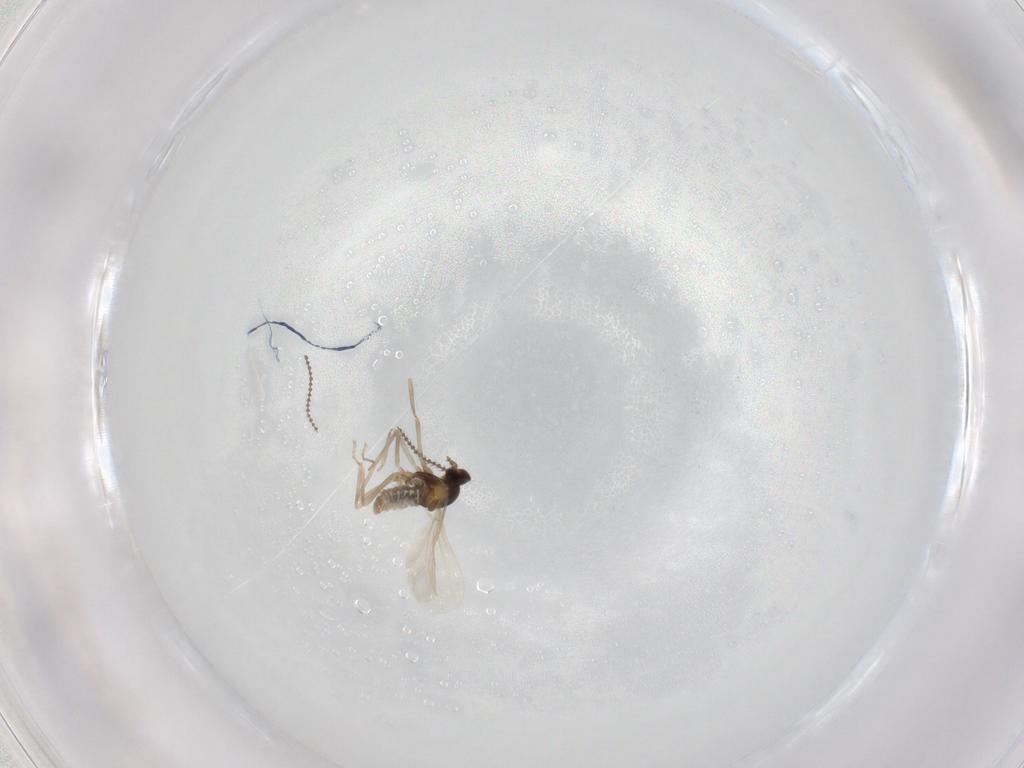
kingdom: Animalia
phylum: Arthropoda
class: Insecta
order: Diptera
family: Cecidomyiidae
